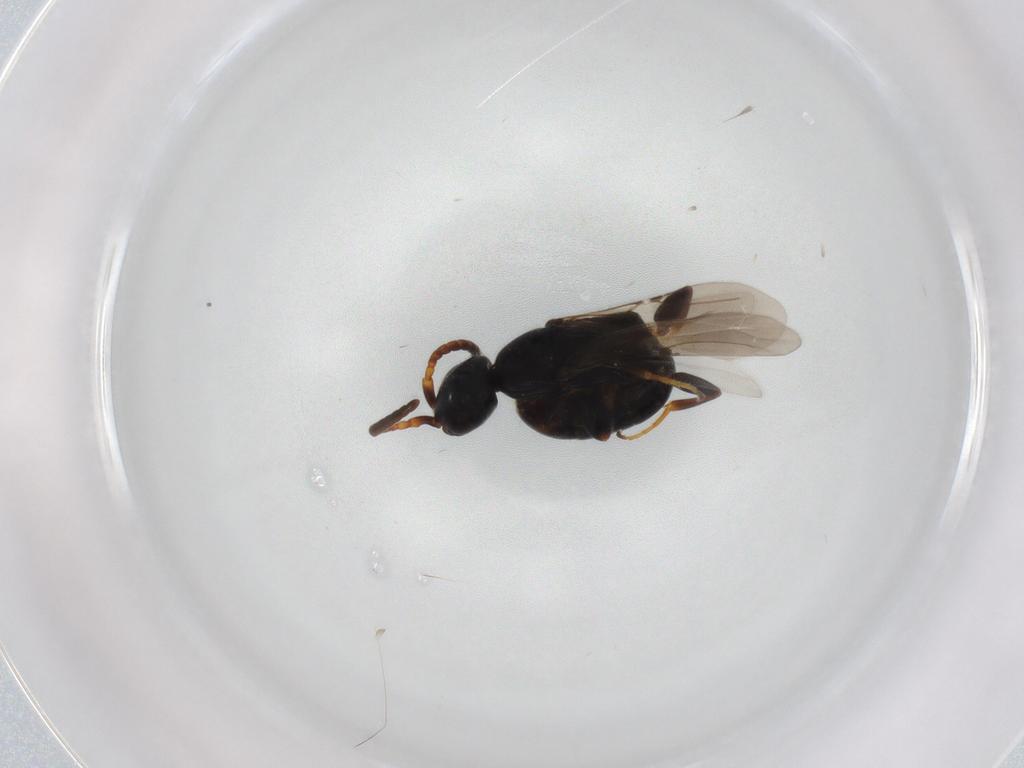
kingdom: Animalia
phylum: Arthropoda
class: Insecta
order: Hymenoptera
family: Bethylidae
